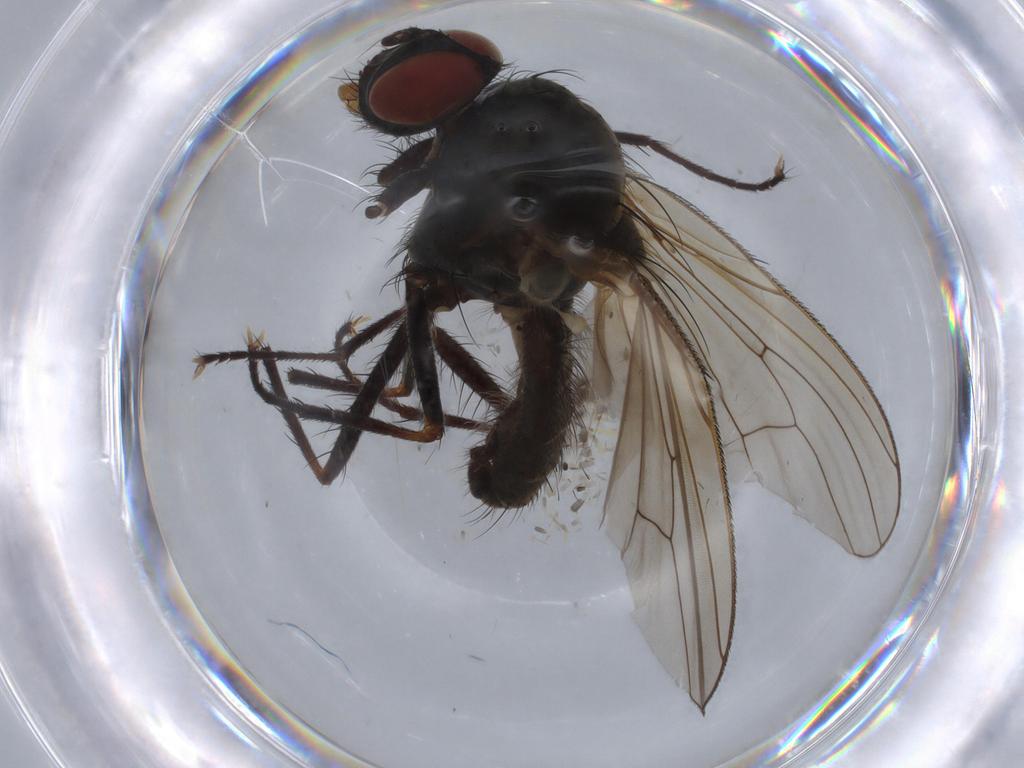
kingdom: Animalia
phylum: Arthropoda
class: Insecta
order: Diptera
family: Anthomyiidae
